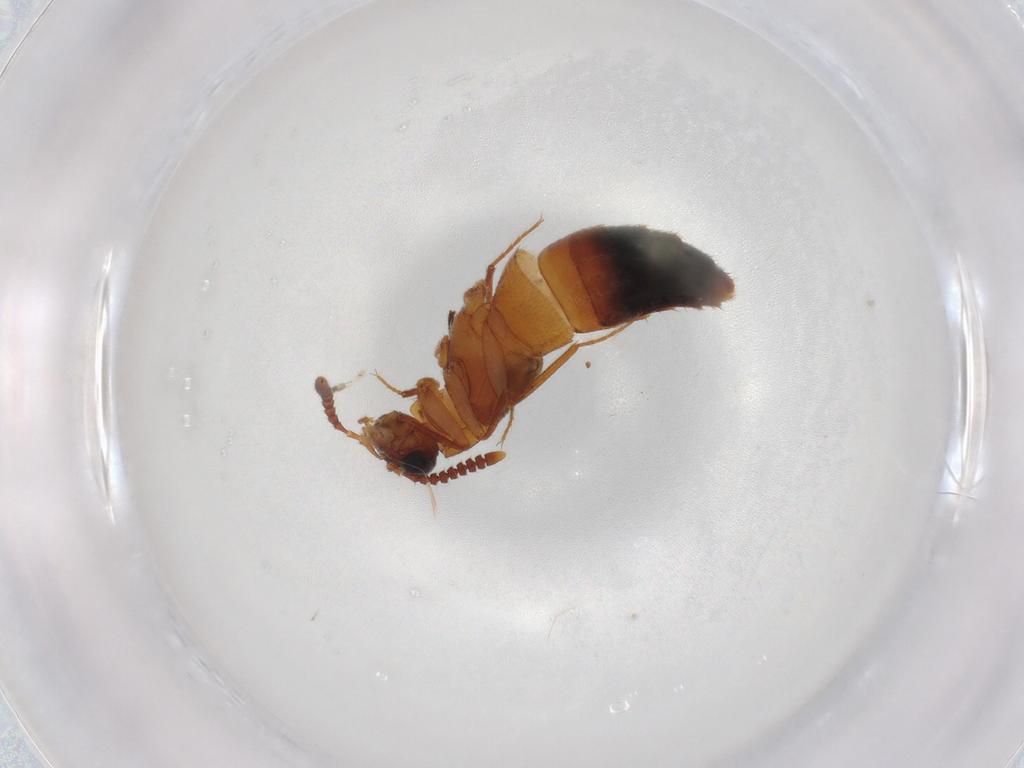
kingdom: Animalia
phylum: Arthropoda
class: Insecta
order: Coleoptera
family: Staphylinidae
